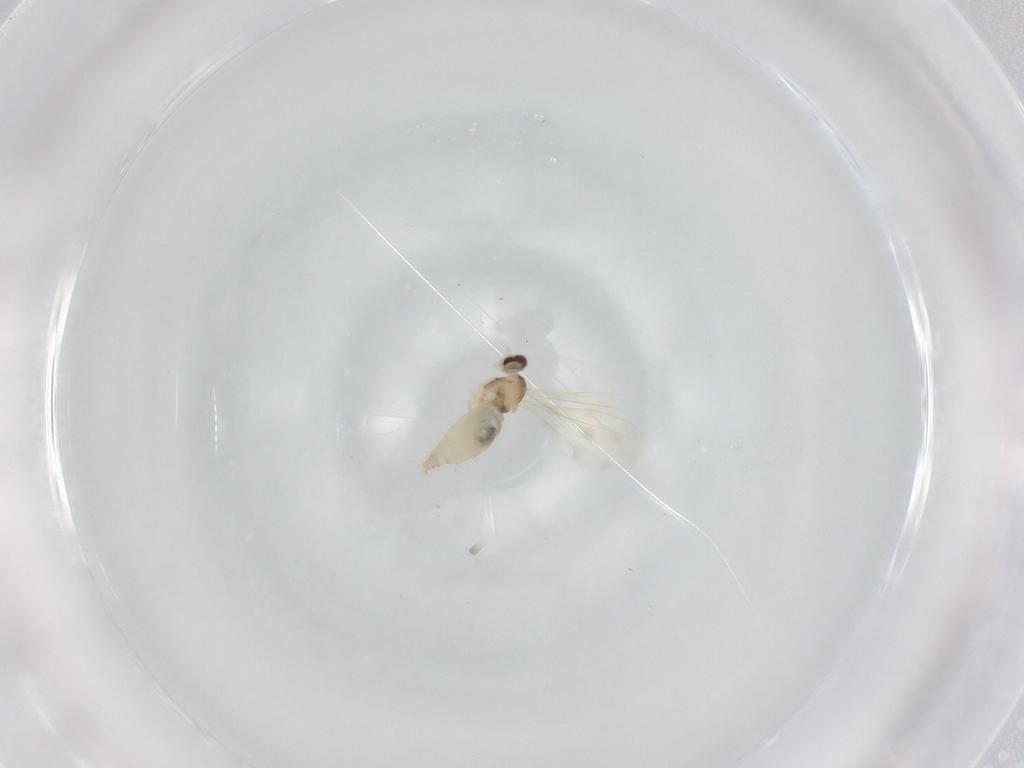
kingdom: Animalia
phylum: Arthropoda
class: Insecta
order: Diptera
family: Cecidomyiidae
